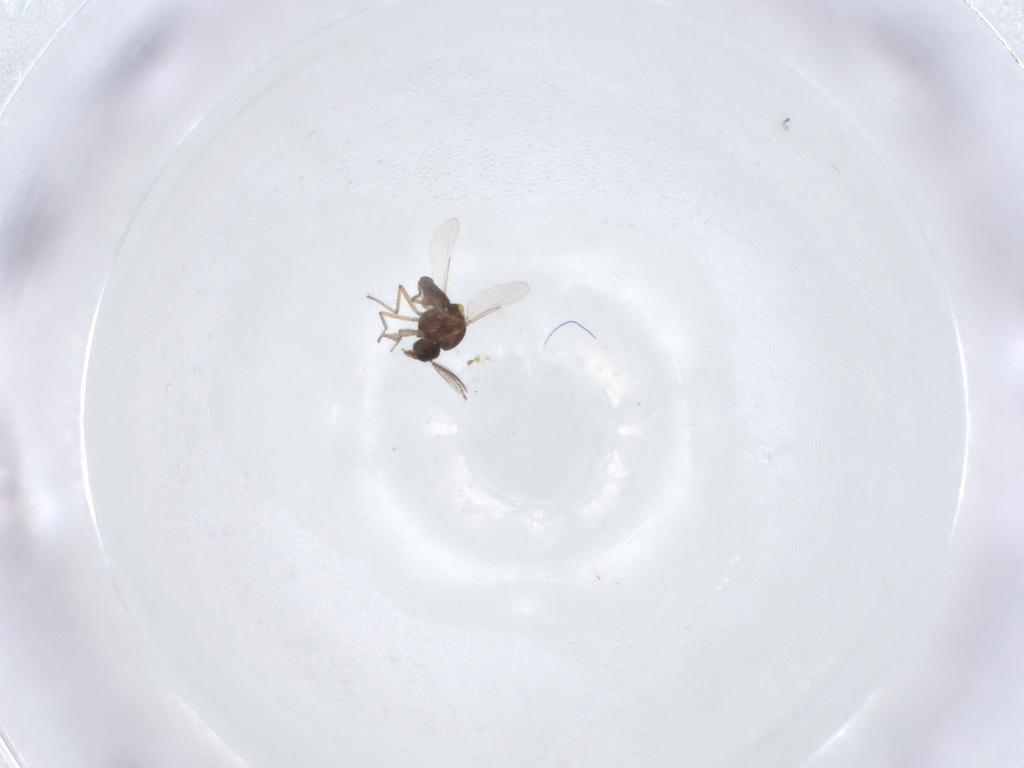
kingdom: Animalia
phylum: Arthropoda
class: Insecta
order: Diptera
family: Ceratopogonidae
